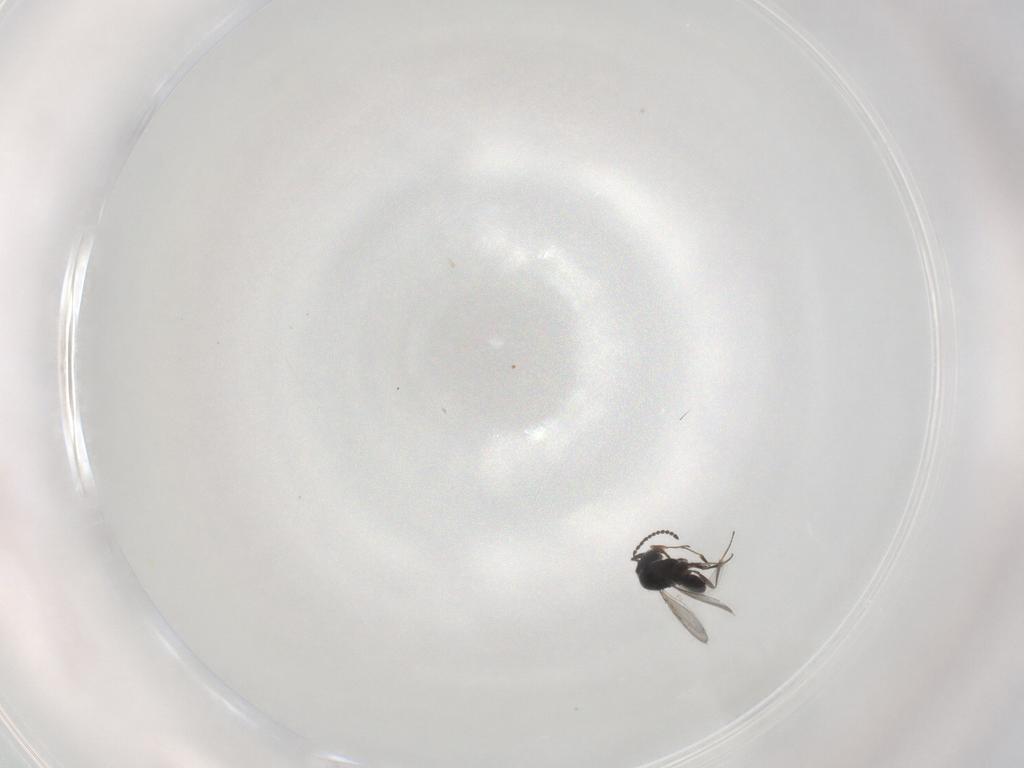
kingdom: Animalia
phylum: Arthropoda
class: Insecta
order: Hymenoptera
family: Scelionidae
